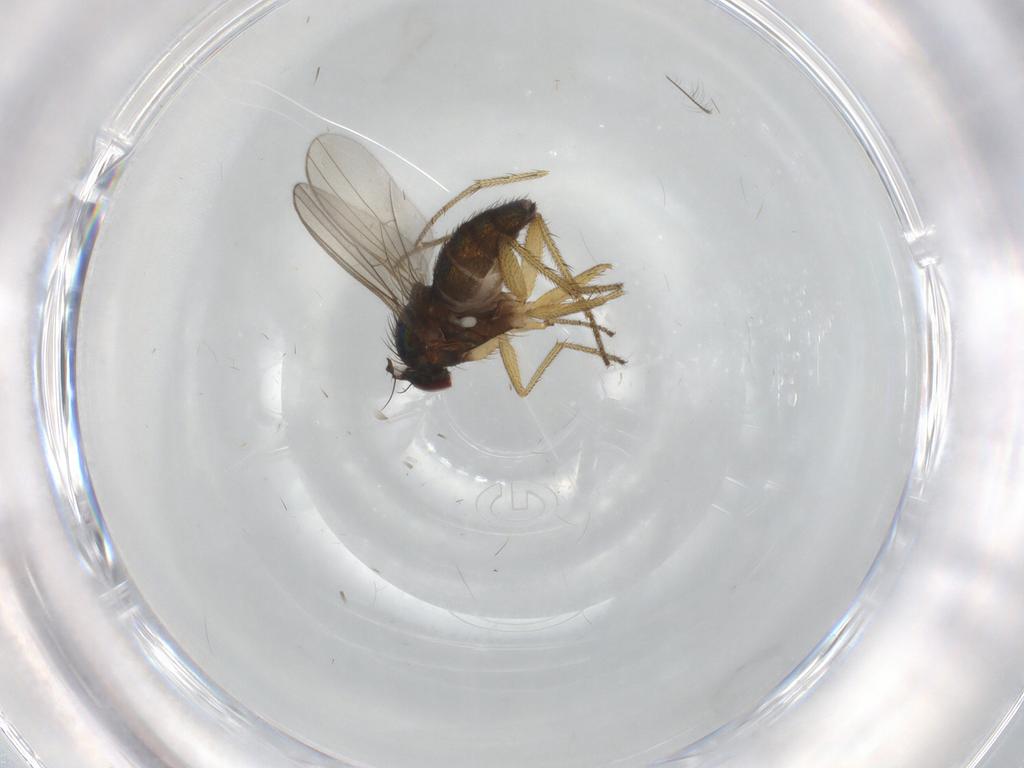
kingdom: Animalia
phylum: Arthropoda
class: Insecta
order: Diptera
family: Dolichopodidae
